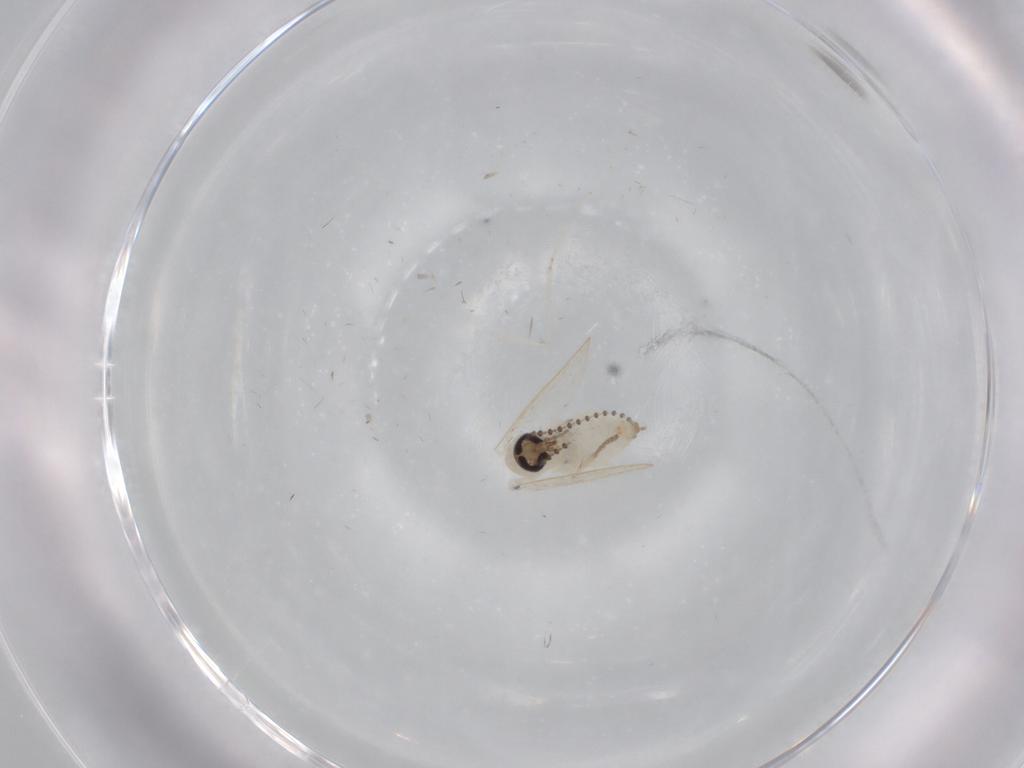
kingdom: Animalia
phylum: Arthropoda
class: Insecta
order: Diptera
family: Psychodidae
